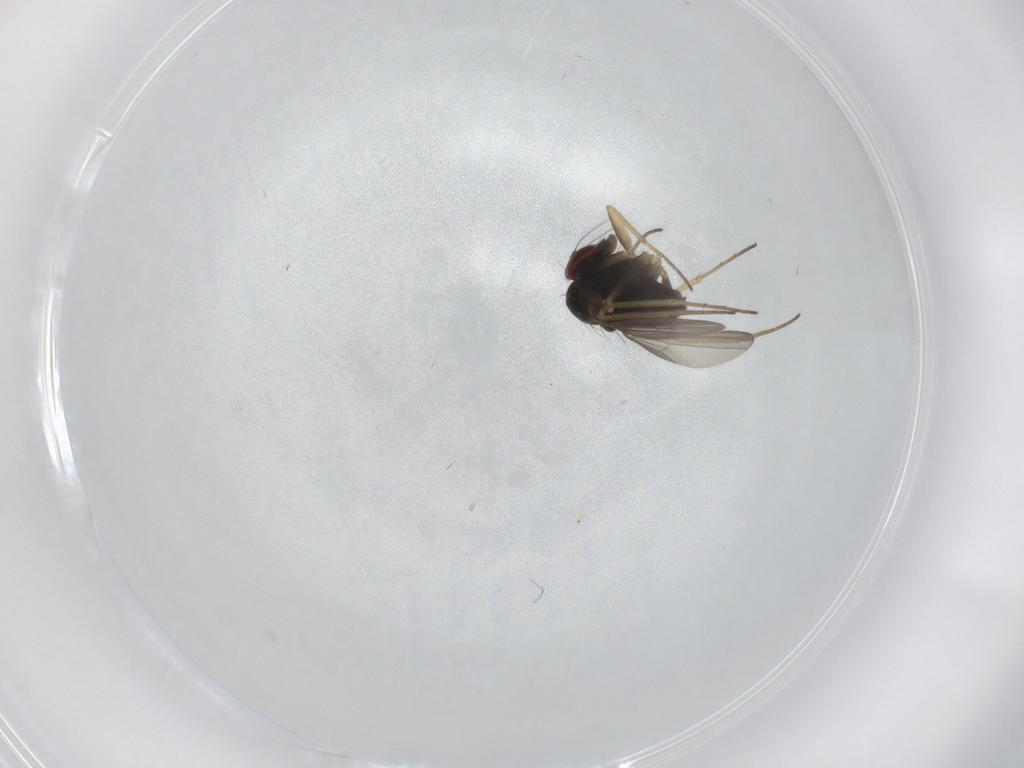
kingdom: Animalia
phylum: Arthropoda
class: Insecta
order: Diptera
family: Dolichopodidae
